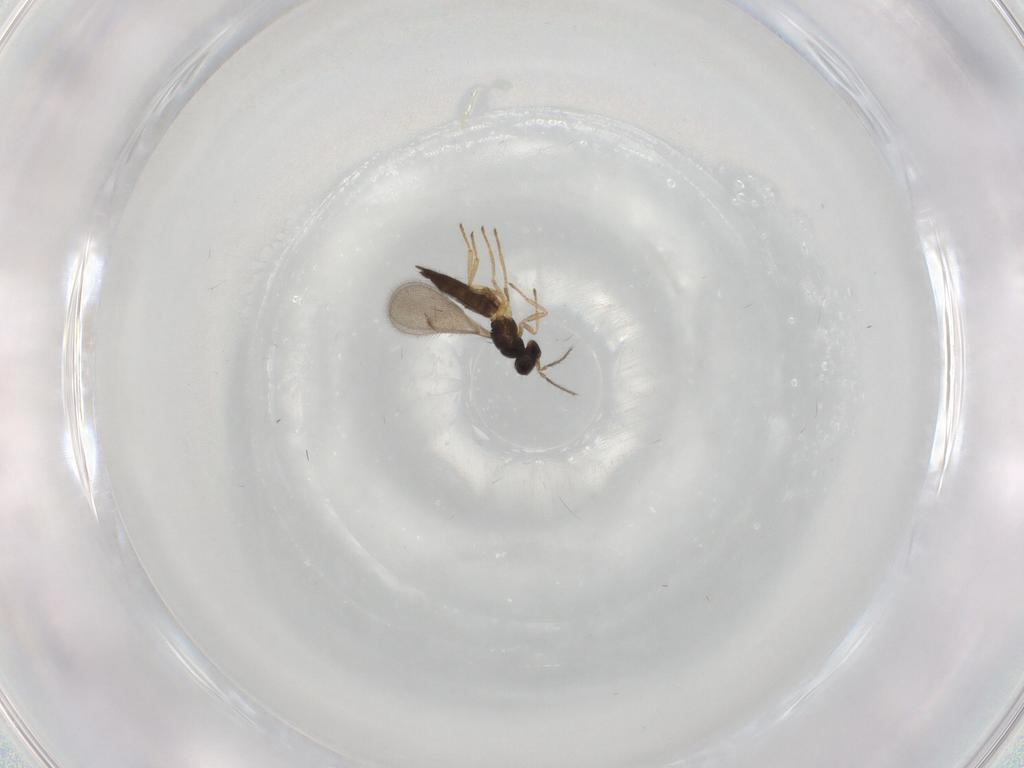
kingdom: Animalia
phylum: Arthropoda
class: Insecta
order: Hymenoptera
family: Eulophidae
